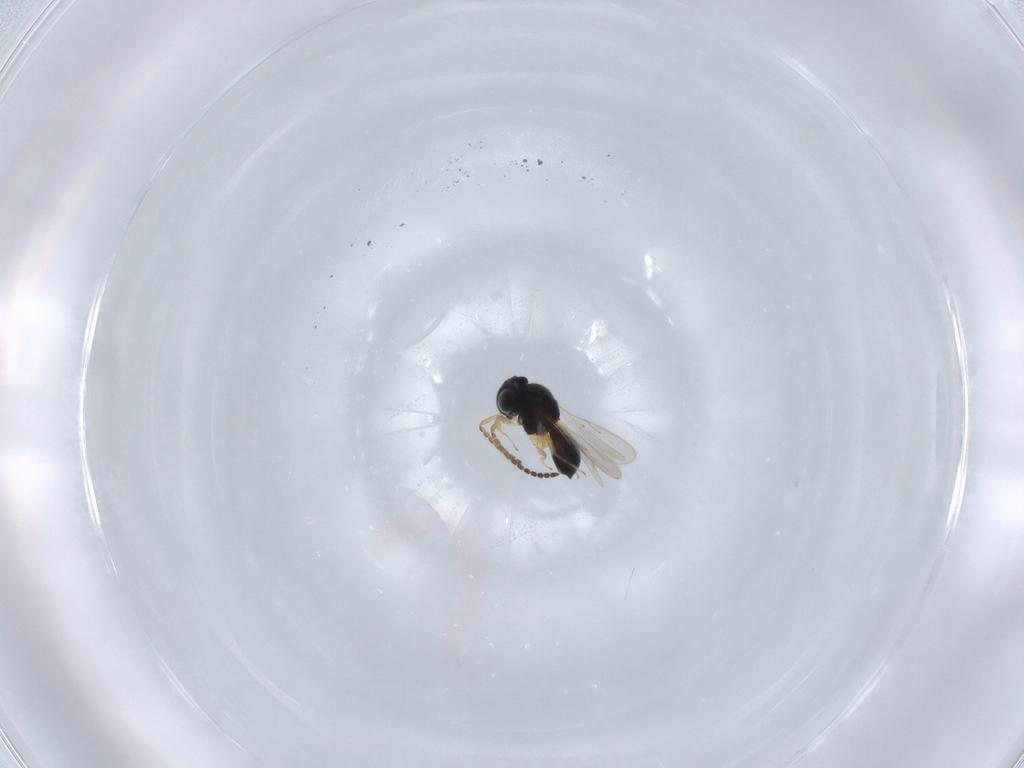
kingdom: Animalia
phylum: Arthropoda
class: Insecta
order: Hymenoptera
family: Scelionidae
